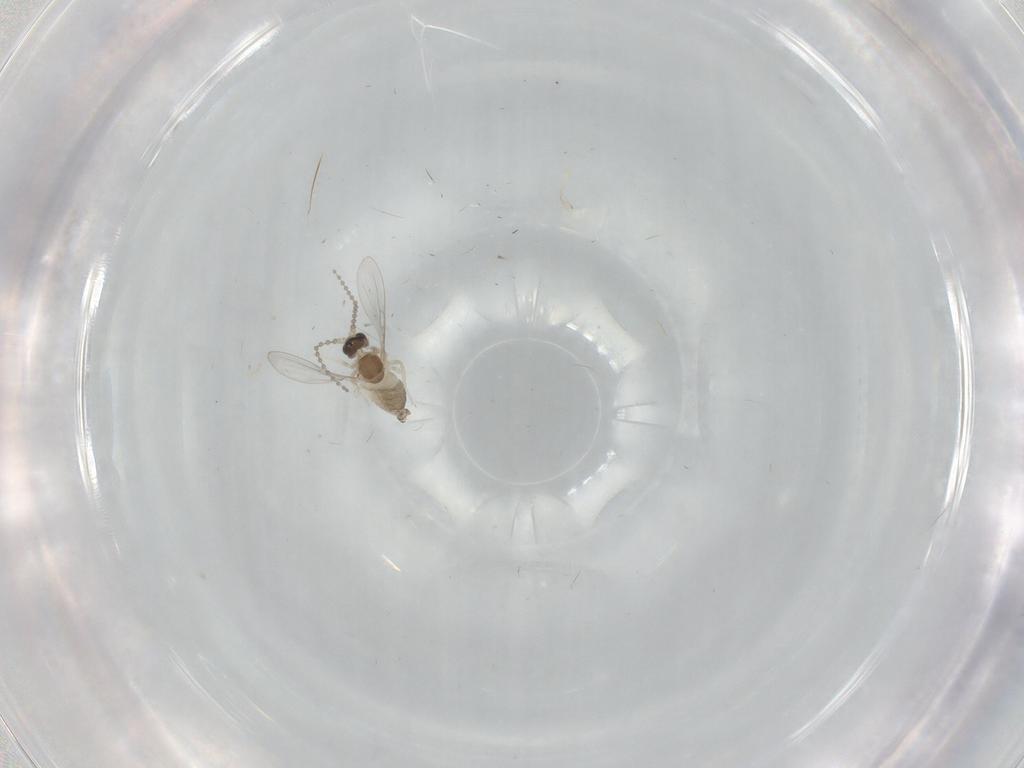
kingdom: Animalia
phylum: Arthropoda
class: Insecta
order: Diptera
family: Cecidomyiidae
